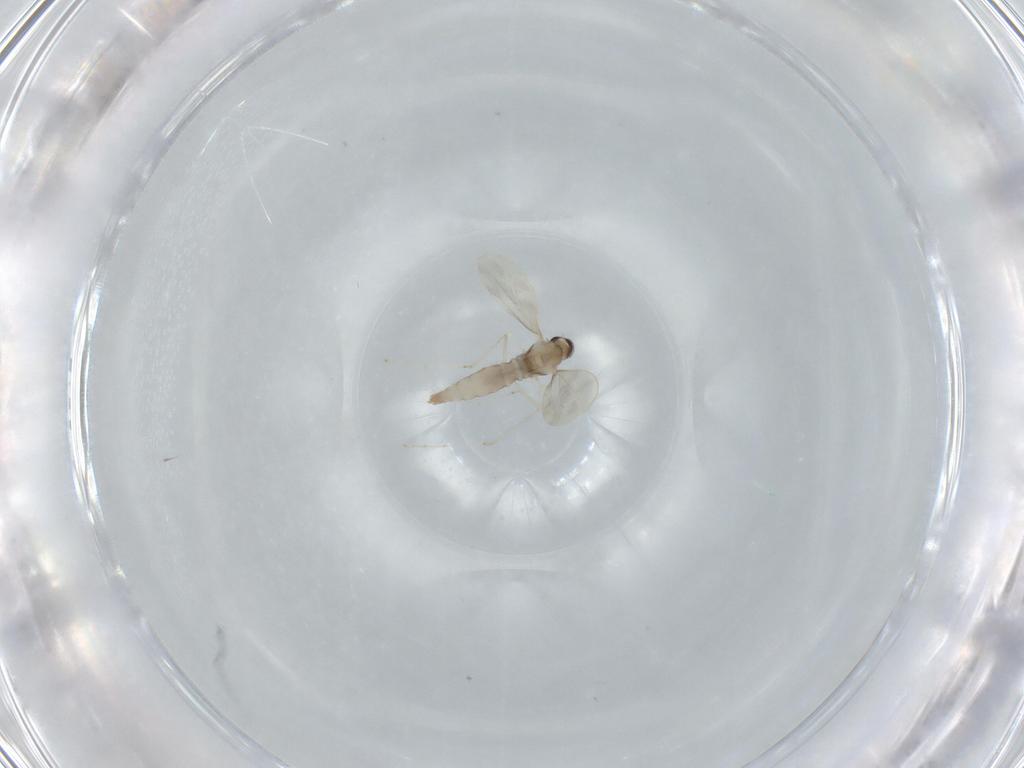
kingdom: Animalia
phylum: Arthropoda
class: Insecta
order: Diptera
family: Cecidomyiidae
